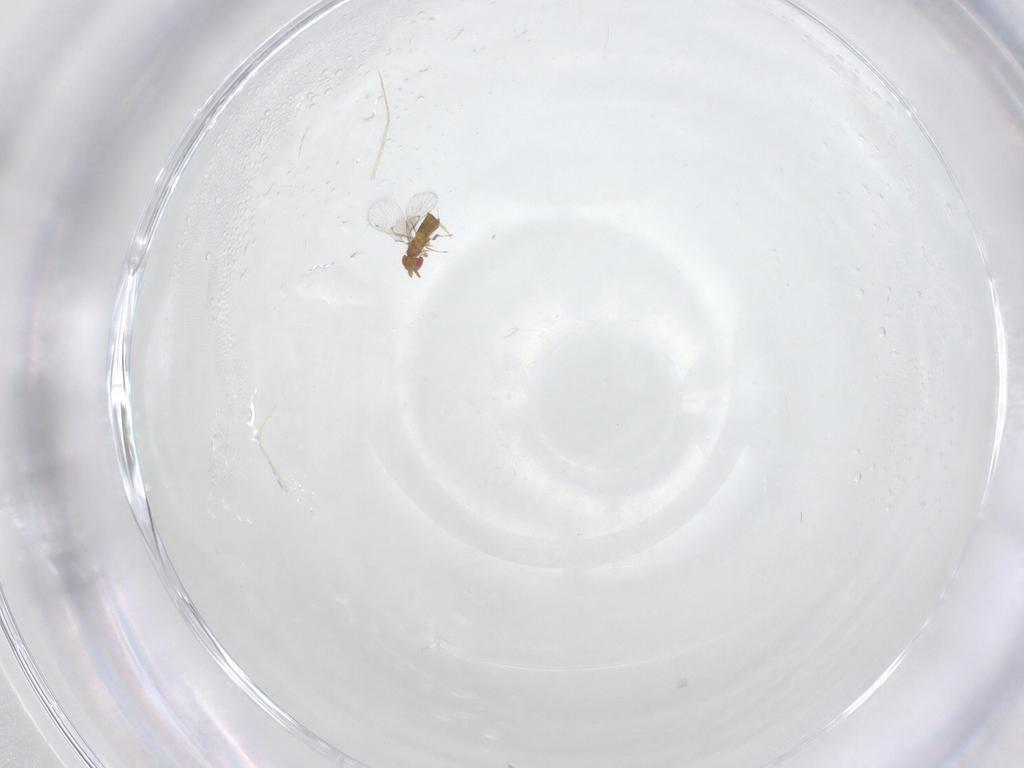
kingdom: Animalia
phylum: Arthropoda
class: Insecta
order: Hymenoptera
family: Trichogrammatidae
